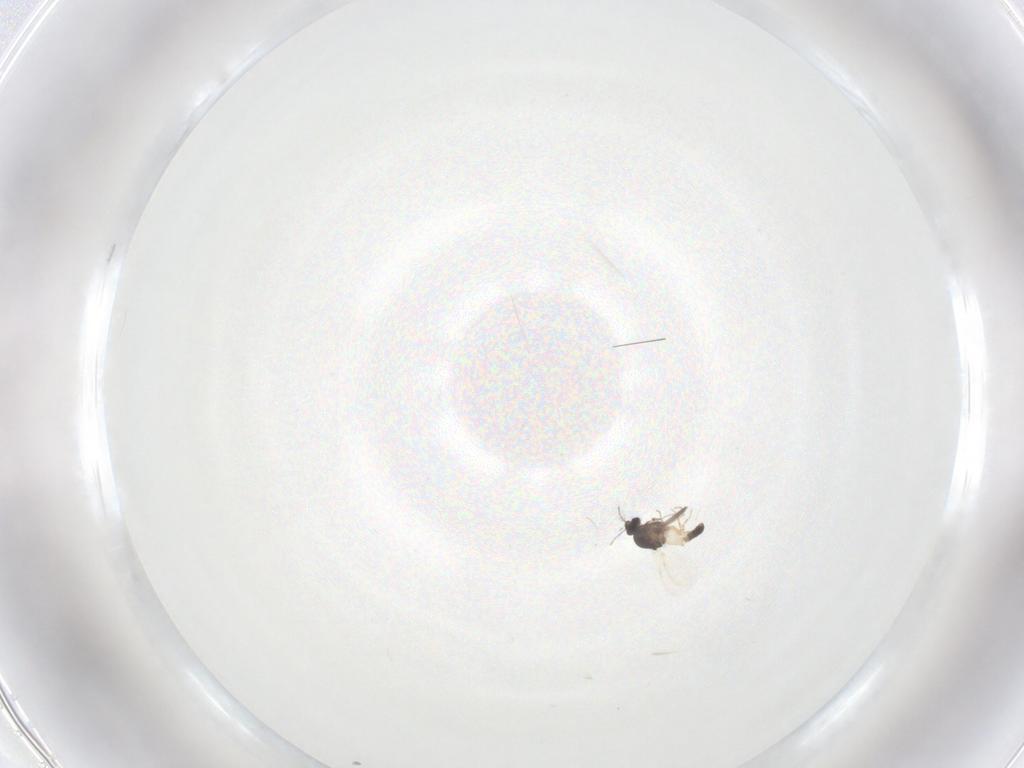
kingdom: Animalia
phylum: Arthropoda
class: Insecta
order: Diptera
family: Ceratopogonidae
